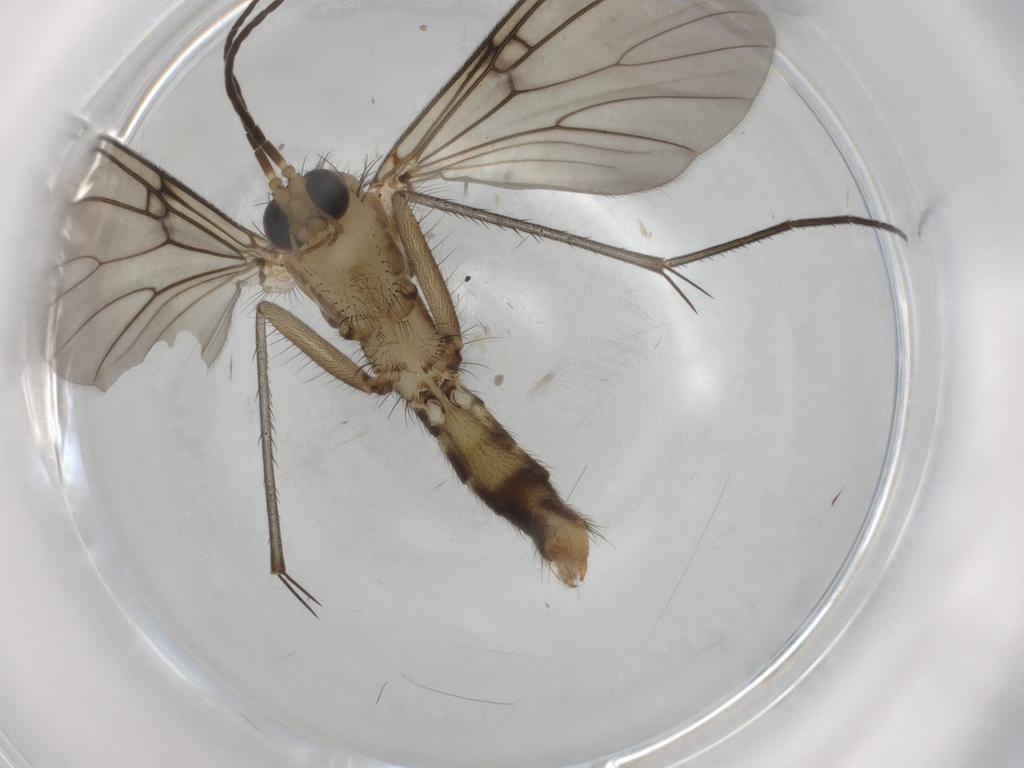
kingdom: Animalia
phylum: Arthropoda
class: Insecta
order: Diptera
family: Mycetophilidae
